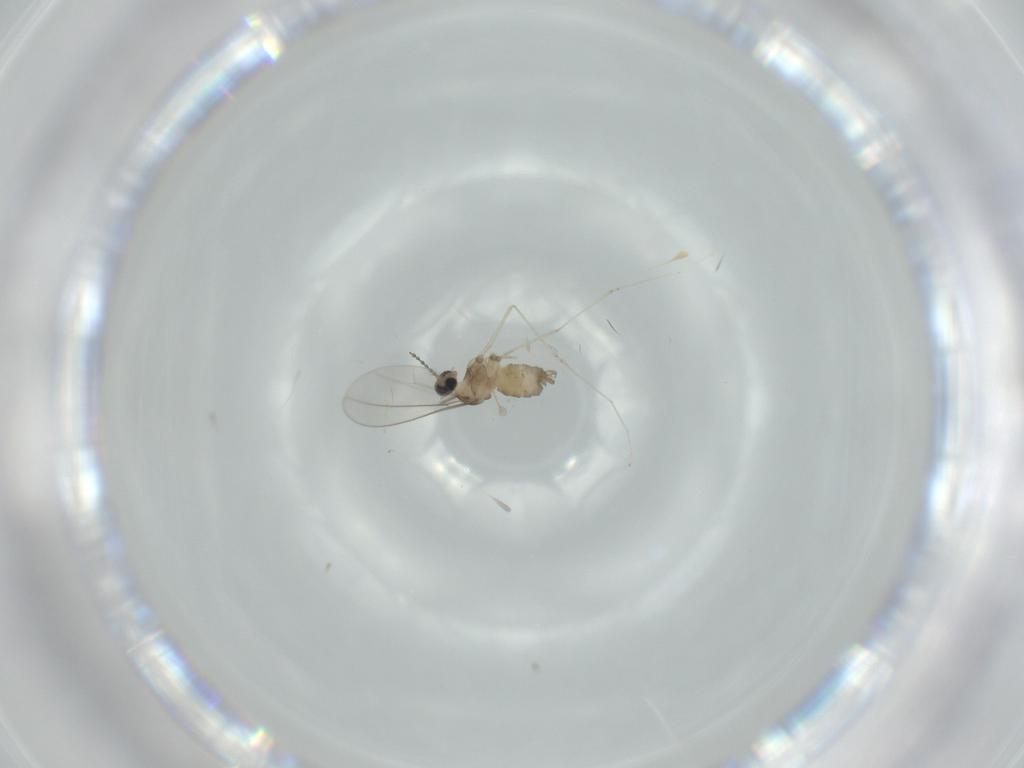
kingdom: Animalia
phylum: Arthropoda
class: Insecta
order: Diptera
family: Cecidomyiidae
